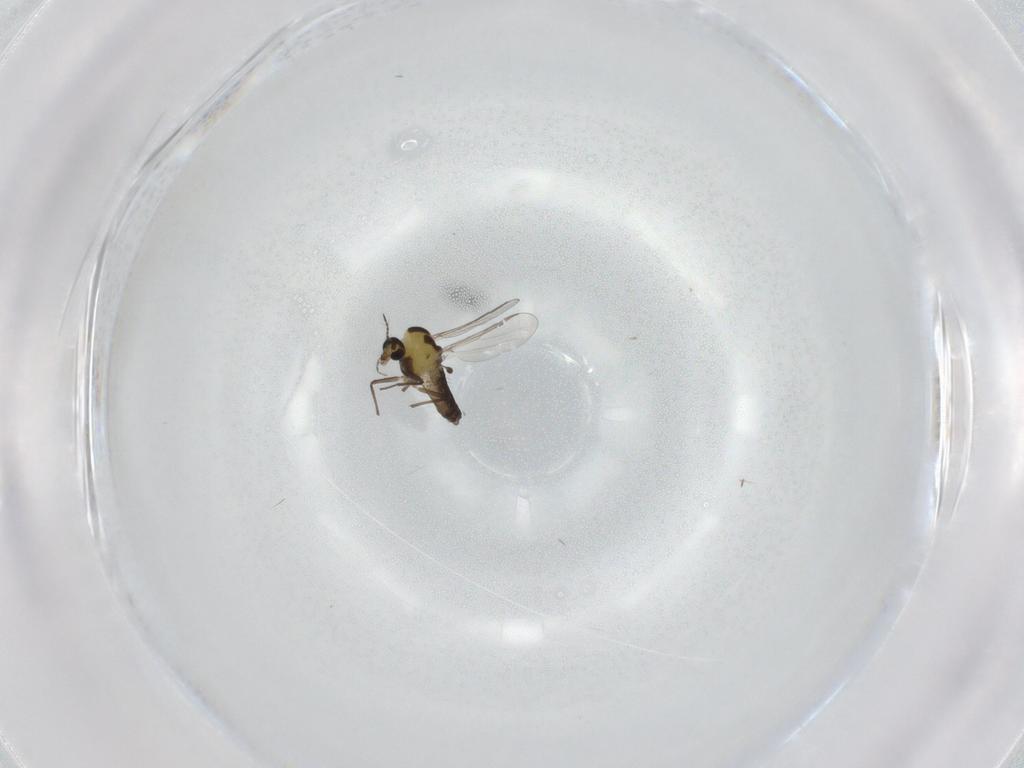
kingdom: Animalia
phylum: Arthropoda
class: Insecta
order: Diptera
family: Chironomidae
